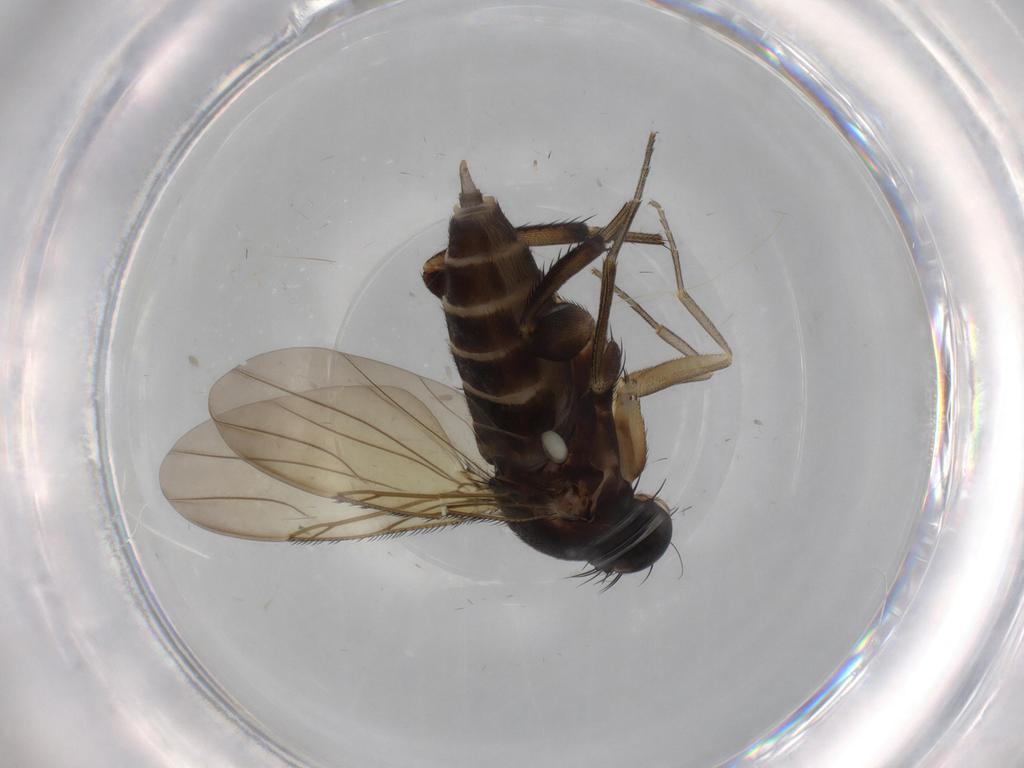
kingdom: Animalia
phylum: Arthropoda
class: Insecta
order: Diptera
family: Phoridae
